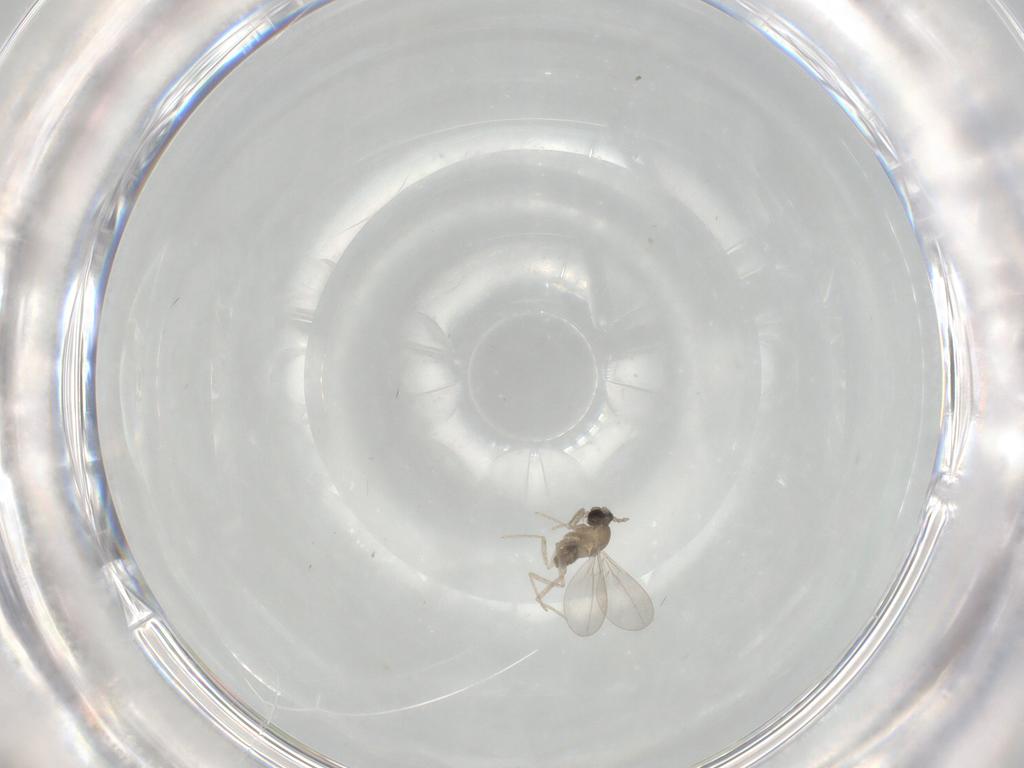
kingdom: Animalia
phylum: Arthropoda
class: Insecta
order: Diptera
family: Cecidomyiidae
